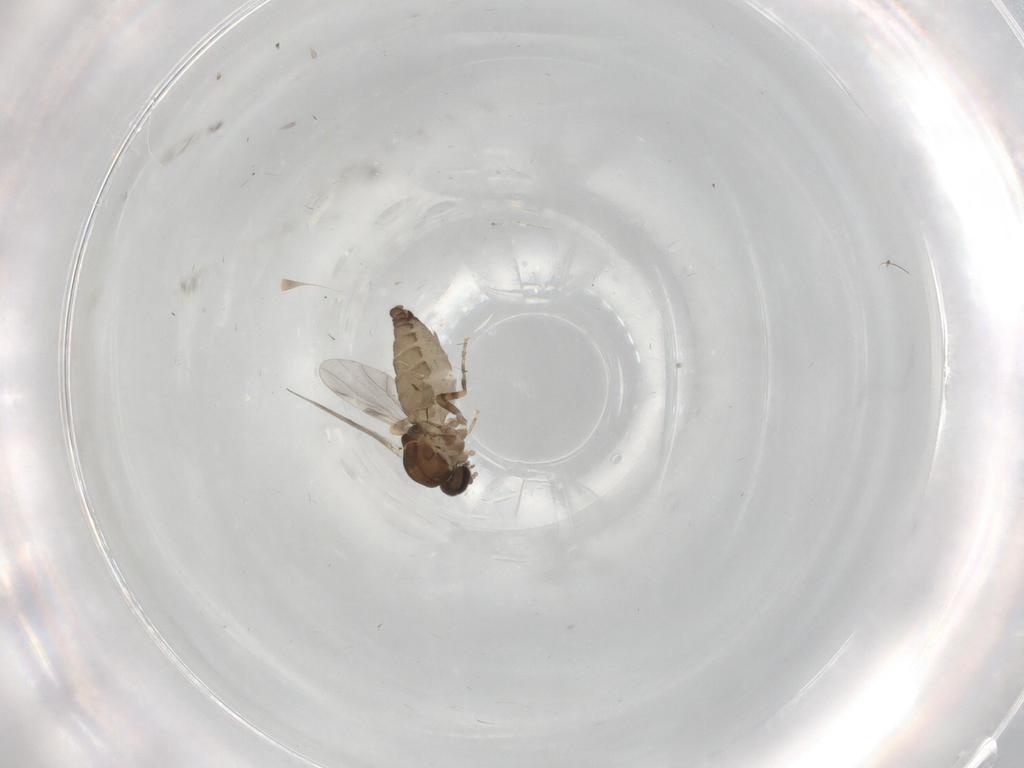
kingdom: Animalia
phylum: Arthropoda
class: Insecta
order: Diptera
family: Ceratopogonidae
